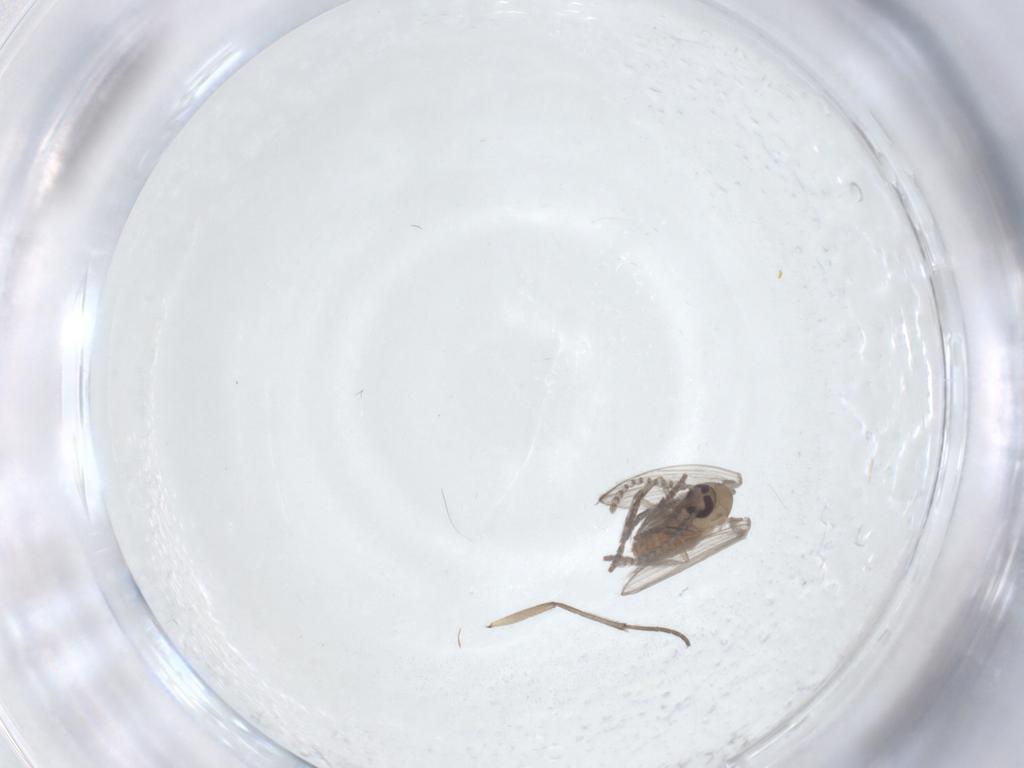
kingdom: Animalia
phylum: Arthropoda
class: Insecta
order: Diptera
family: Psychodidae
